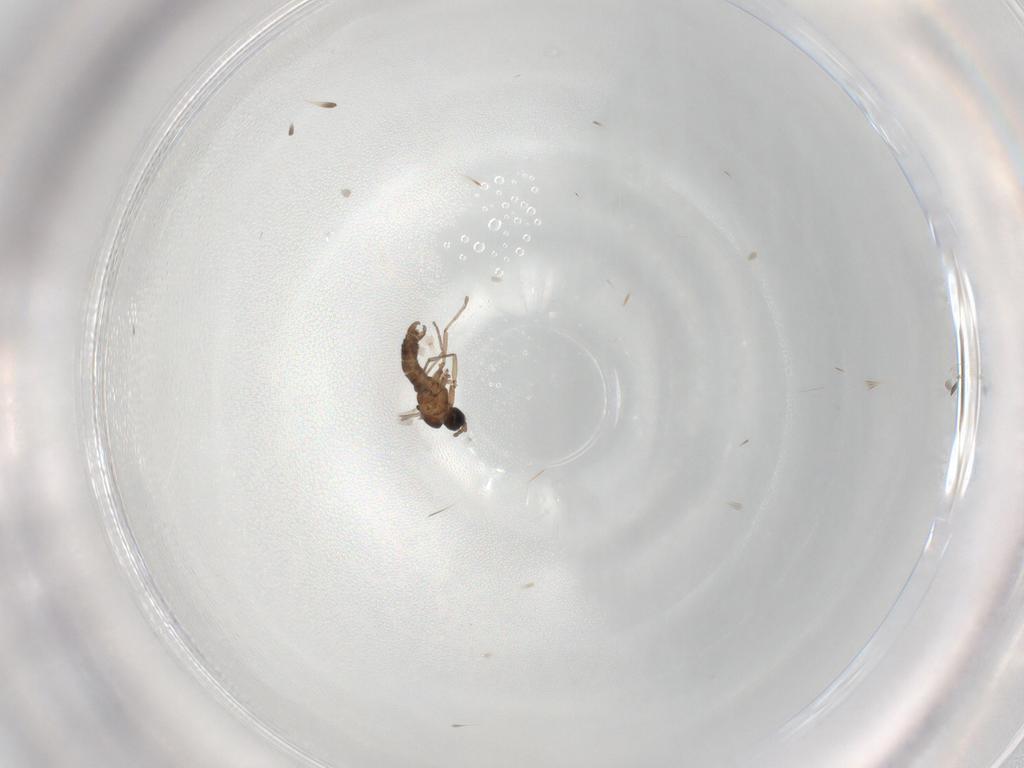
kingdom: Animalia
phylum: Arthropoda
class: Insecta
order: Diptera
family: Sciaridae
